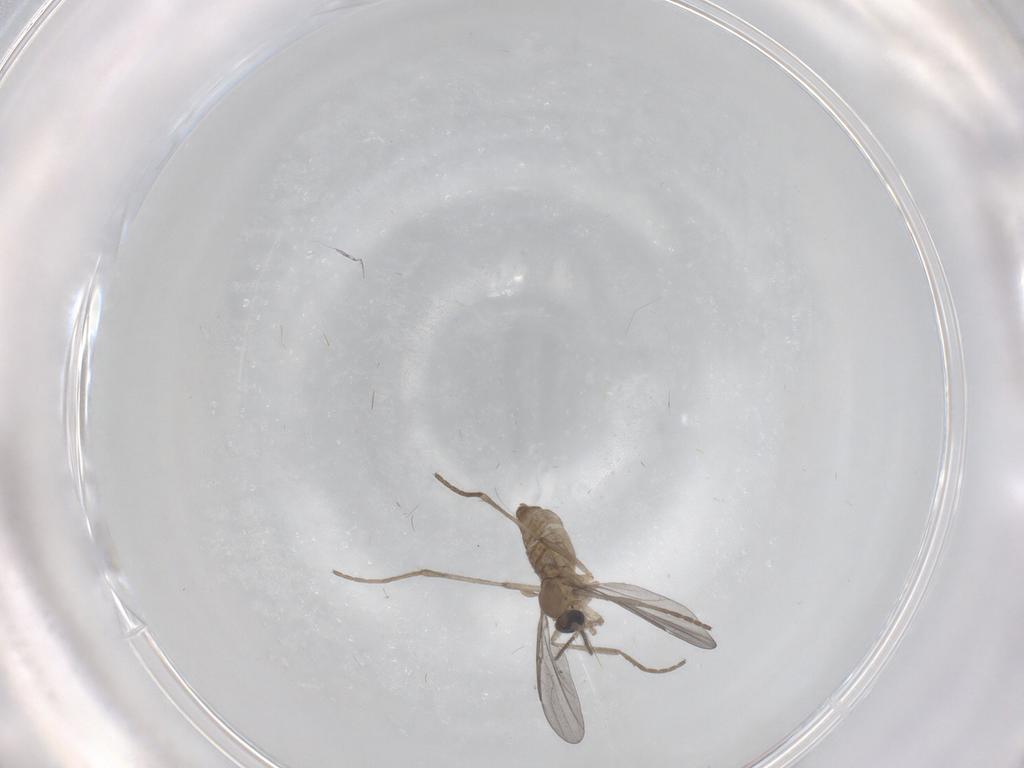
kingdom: Animalia
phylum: Arthropoda
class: Insecta
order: Diptera
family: Cecidomyiidae
